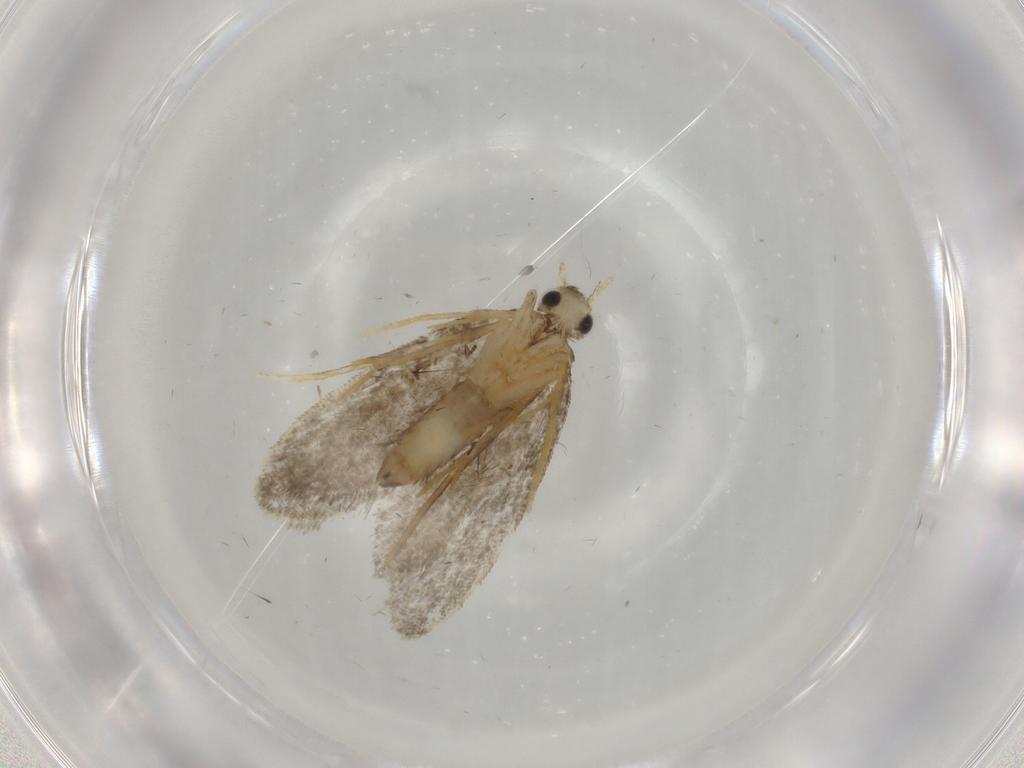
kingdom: Animalia
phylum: Arthropoda
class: Insecta
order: Lepidoptera
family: Psychidae
